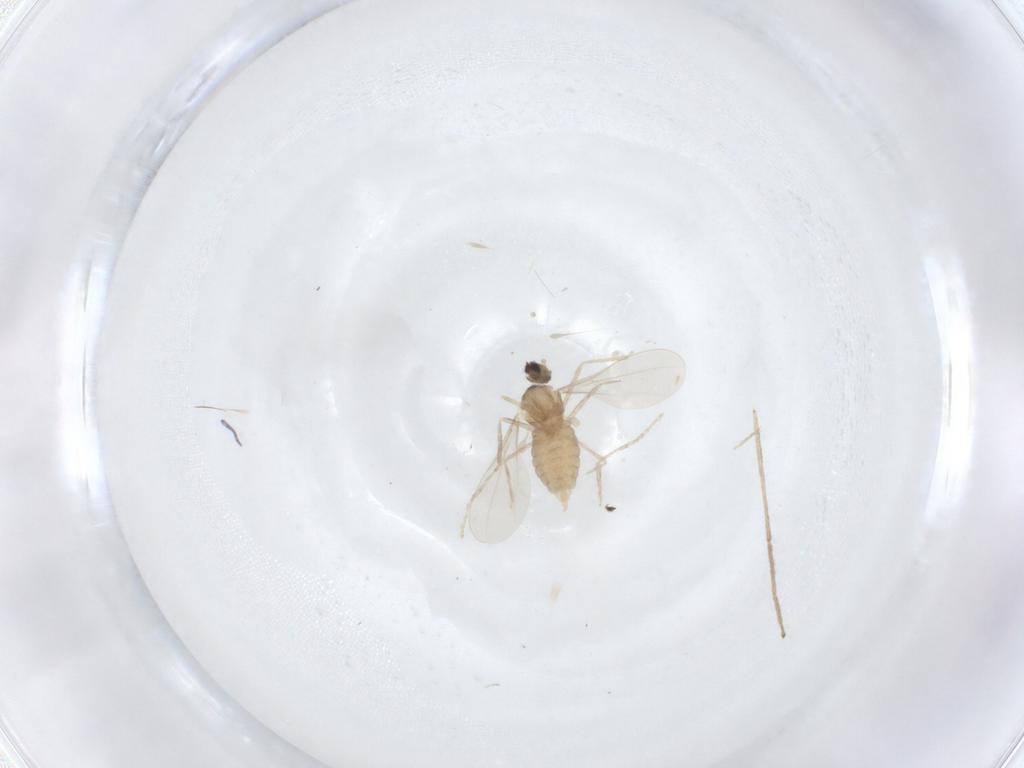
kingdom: Animalia
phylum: Arthropoda
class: Insecta
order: Diptera
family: Cecidomyiidae
